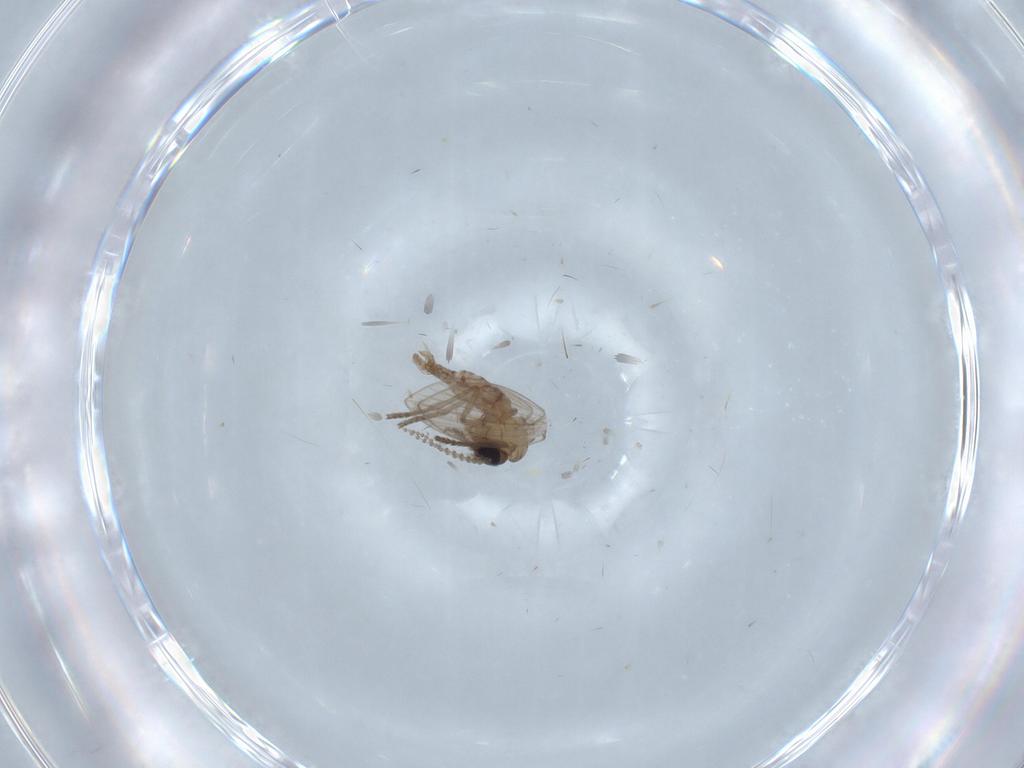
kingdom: Animalia
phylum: Arthropoda
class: Insecta
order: Diptera
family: Psychodidae
